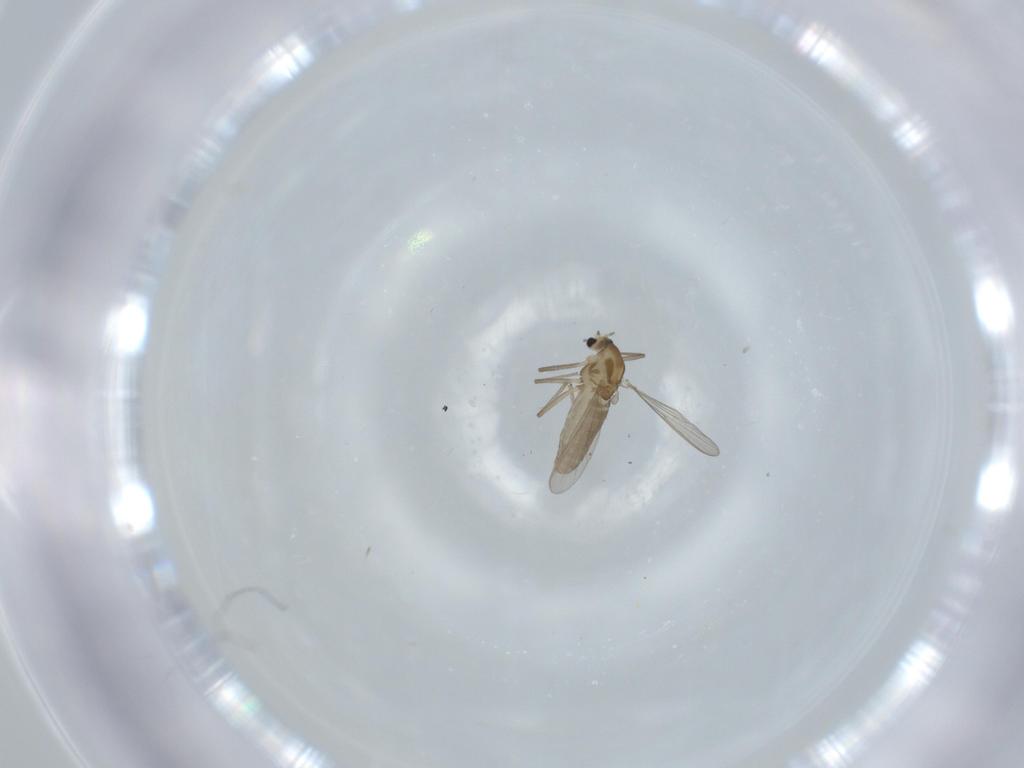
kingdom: Animalia
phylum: Arthropoda
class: Insecta
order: Diptera
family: Chironomidae
